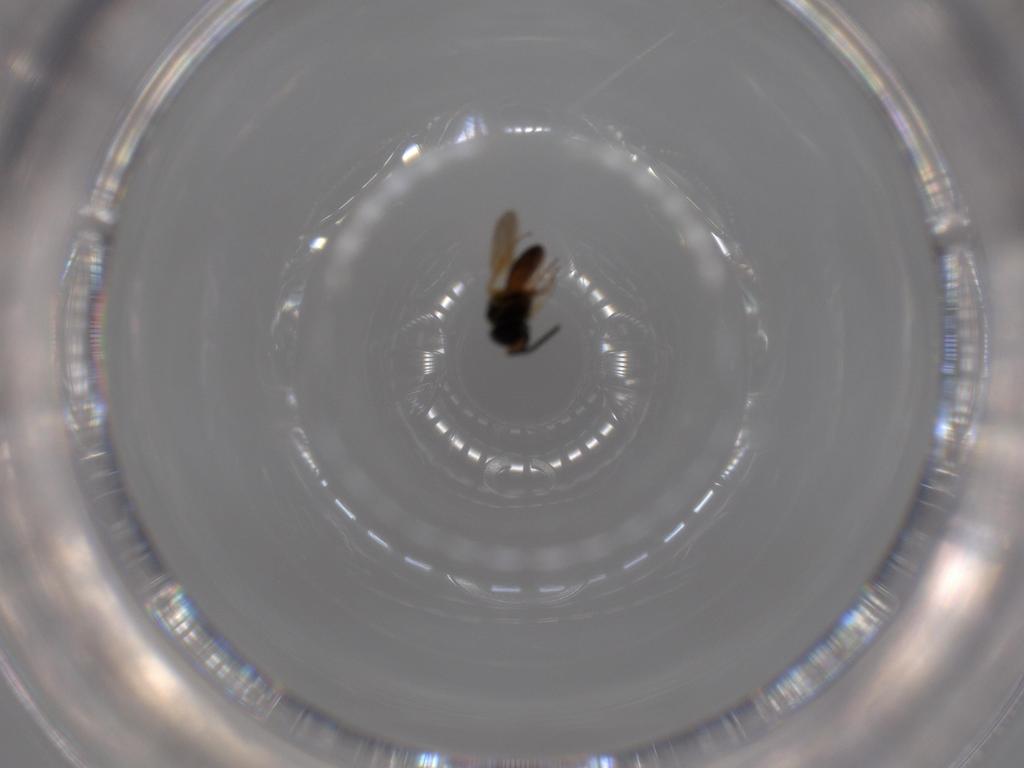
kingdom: Animalia
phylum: Arthropoda
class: Insecta
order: Hymenoptera
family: Scelionidae
